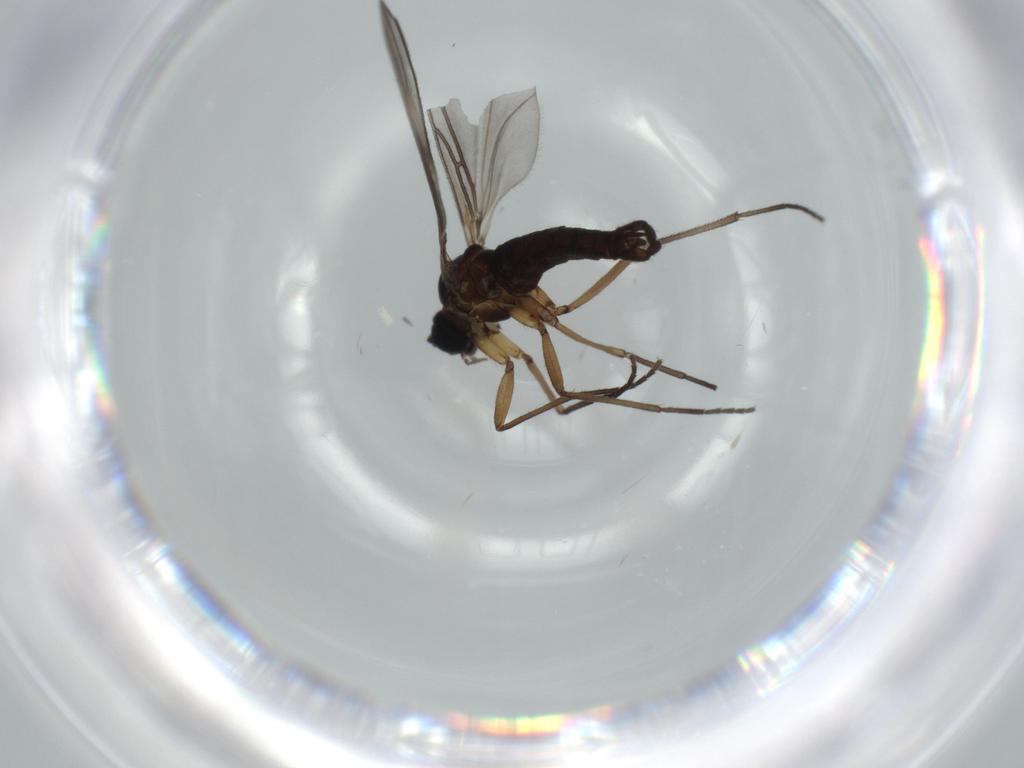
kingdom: Animalia
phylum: Arthropoda
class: Insecta
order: Diptera
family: Sciaridae
